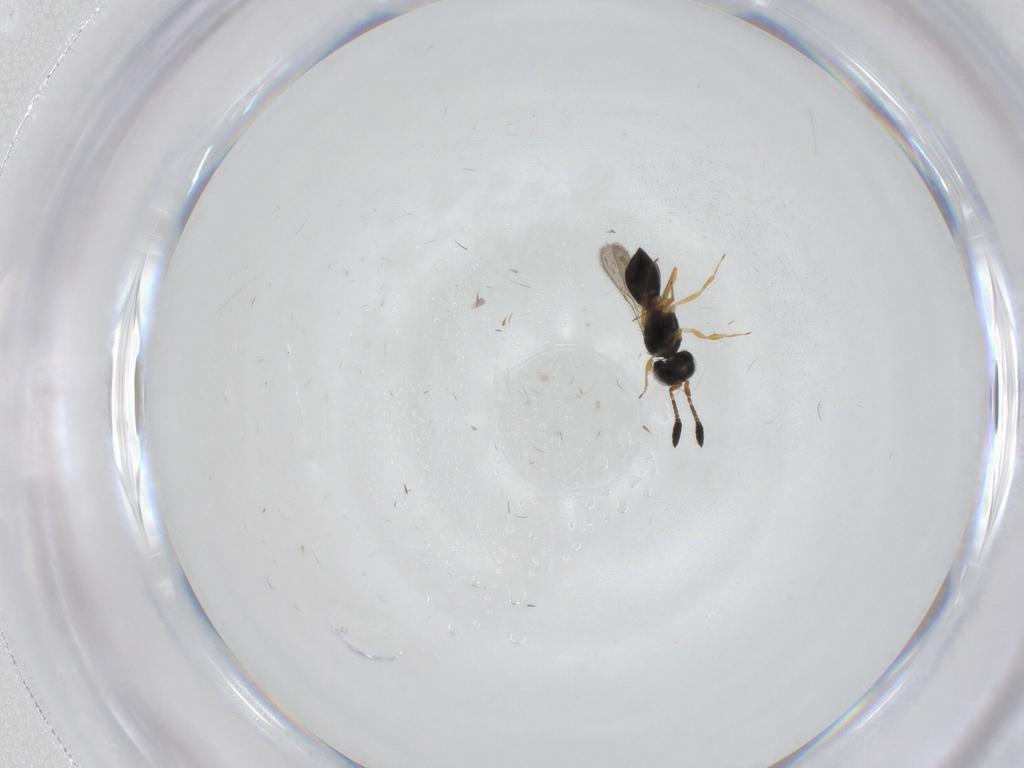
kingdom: Animalia
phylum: Arthropoda
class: Insecta
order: Hymenoptera
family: Scelionidae
